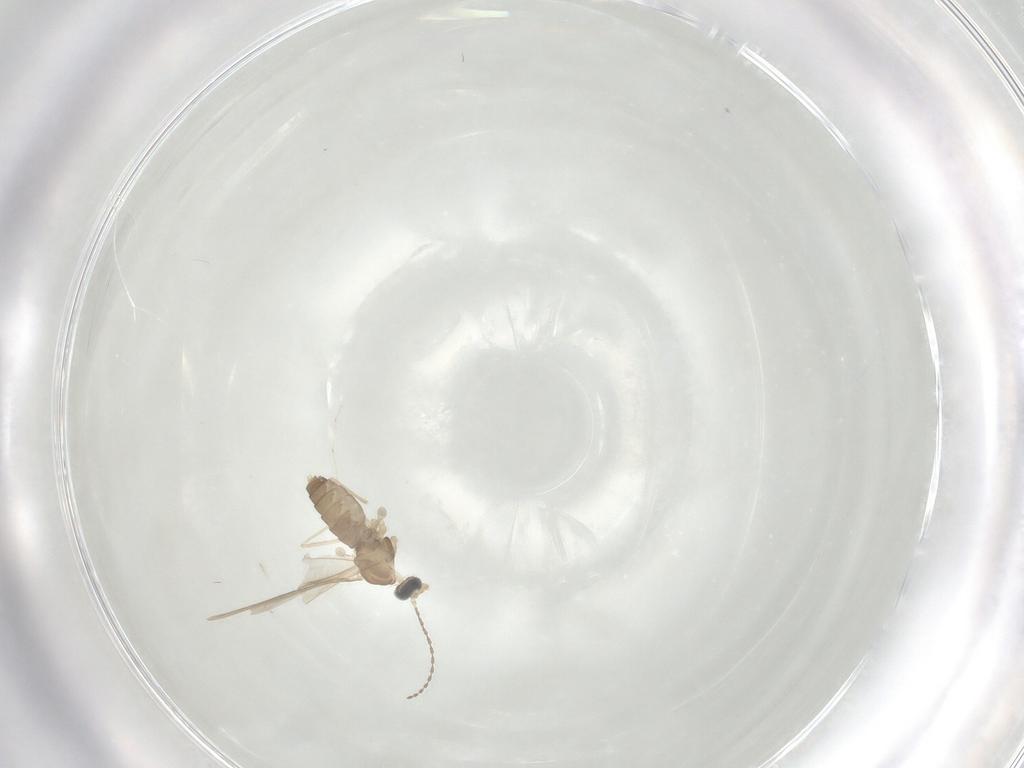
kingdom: Animalia
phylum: Arthropoda
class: Insecta
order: Diptera
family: Cecidomyiidae
